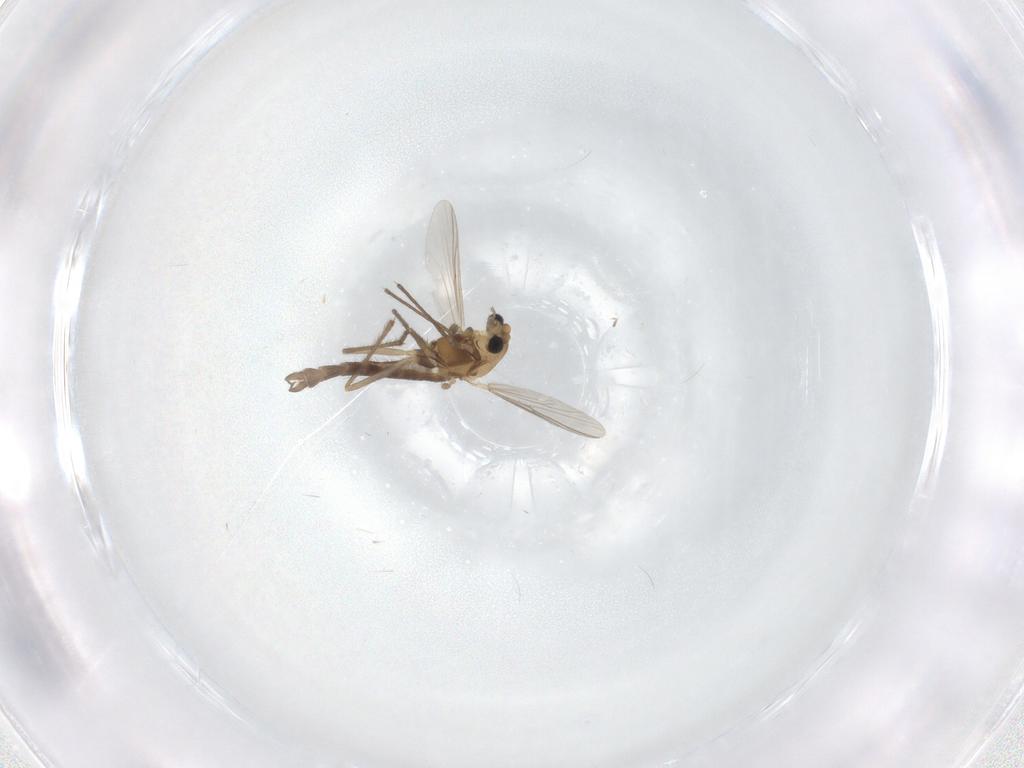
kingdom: Animalia
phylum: Arthropoda
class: Insecta
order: Diptera
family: Chironomidae
